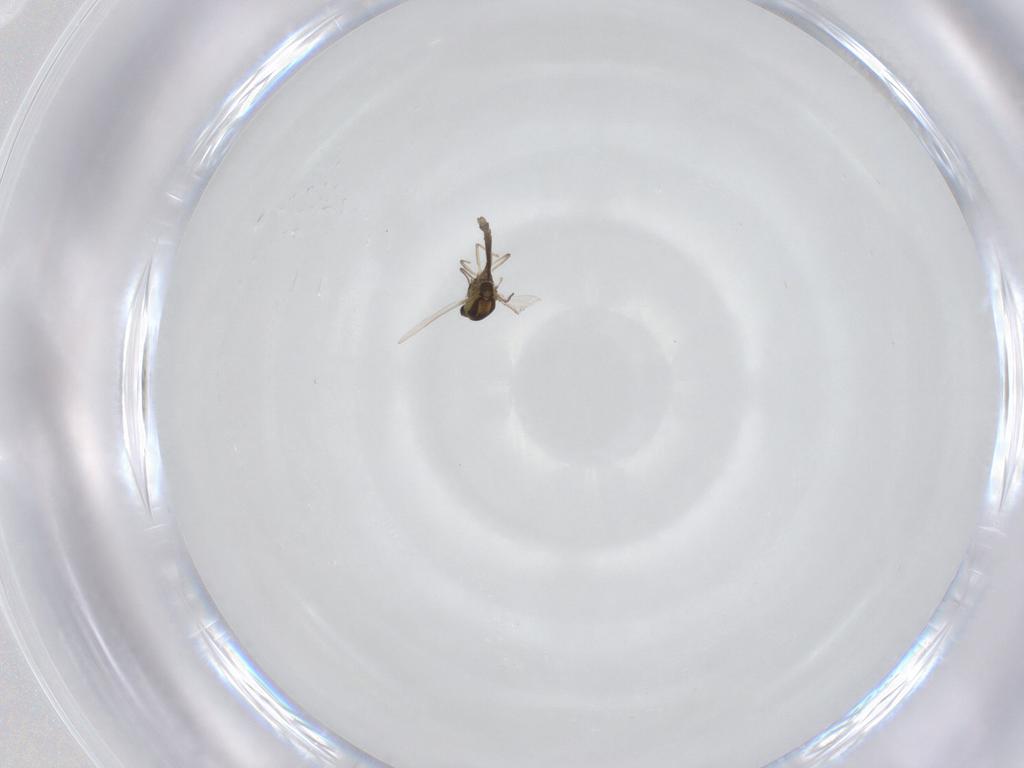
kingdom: Animalia
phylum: Arthropoda
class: Insecta
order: Diptera
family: Chironomidae
